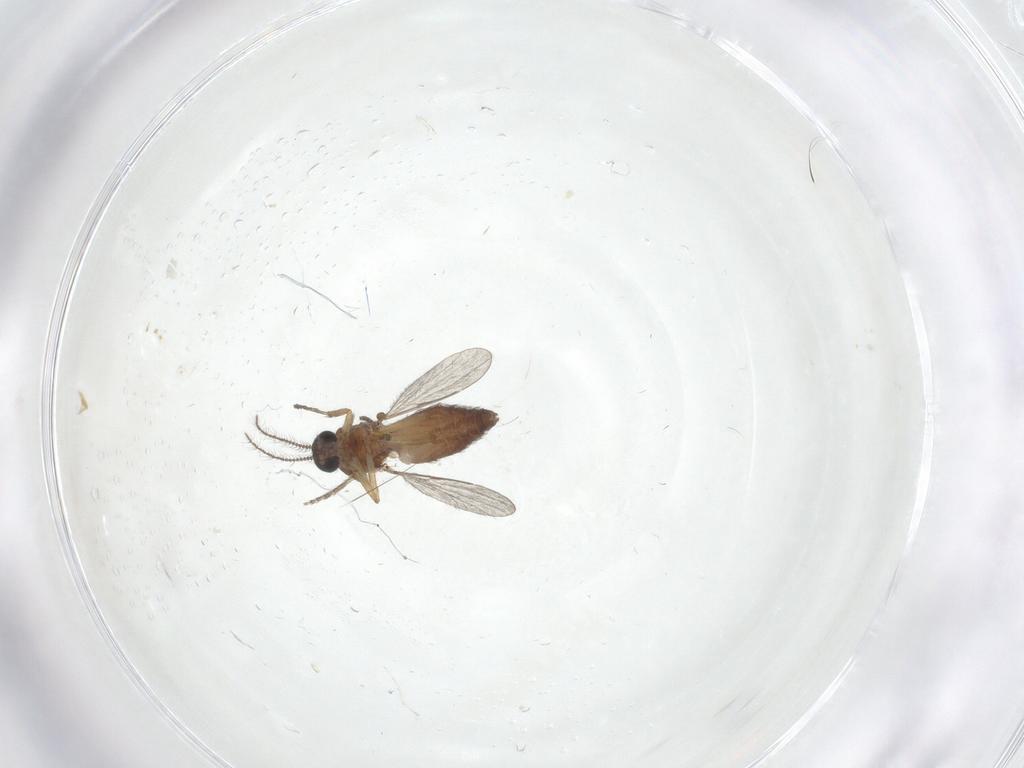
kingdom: Animalia
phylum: Arthropoda
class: Insecta
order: Diptera
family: Ceratopogonidae
